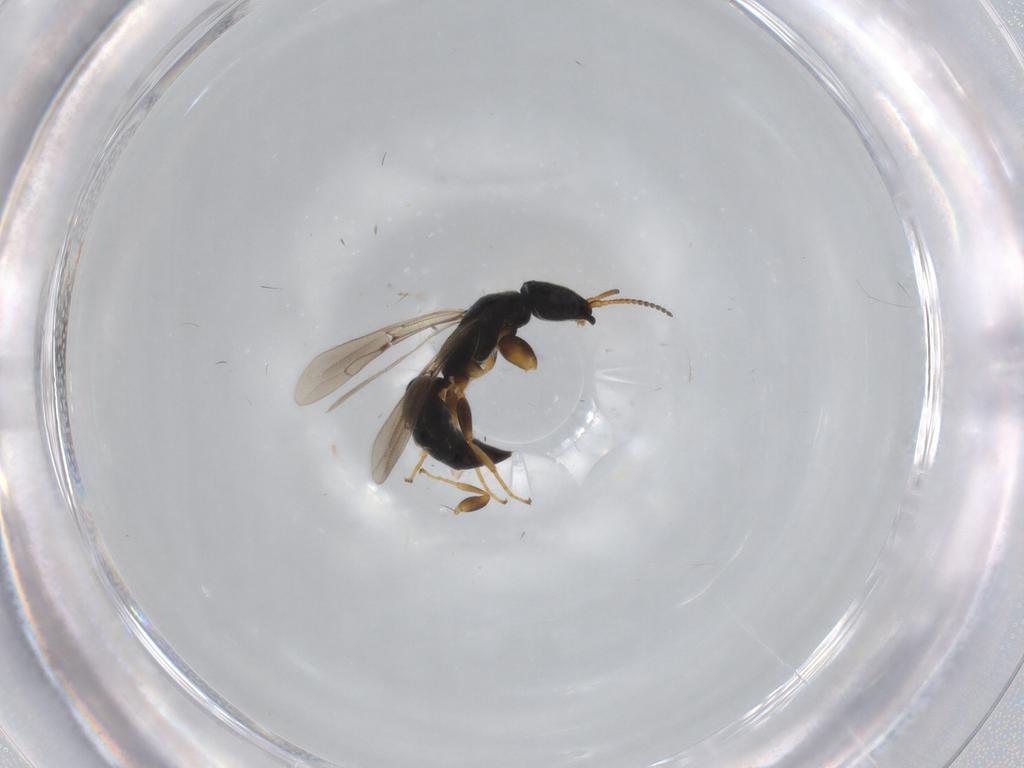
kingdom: Animalia
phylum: Arthropoda
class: Insecta
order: Hymenoptera
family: Bethylidae
